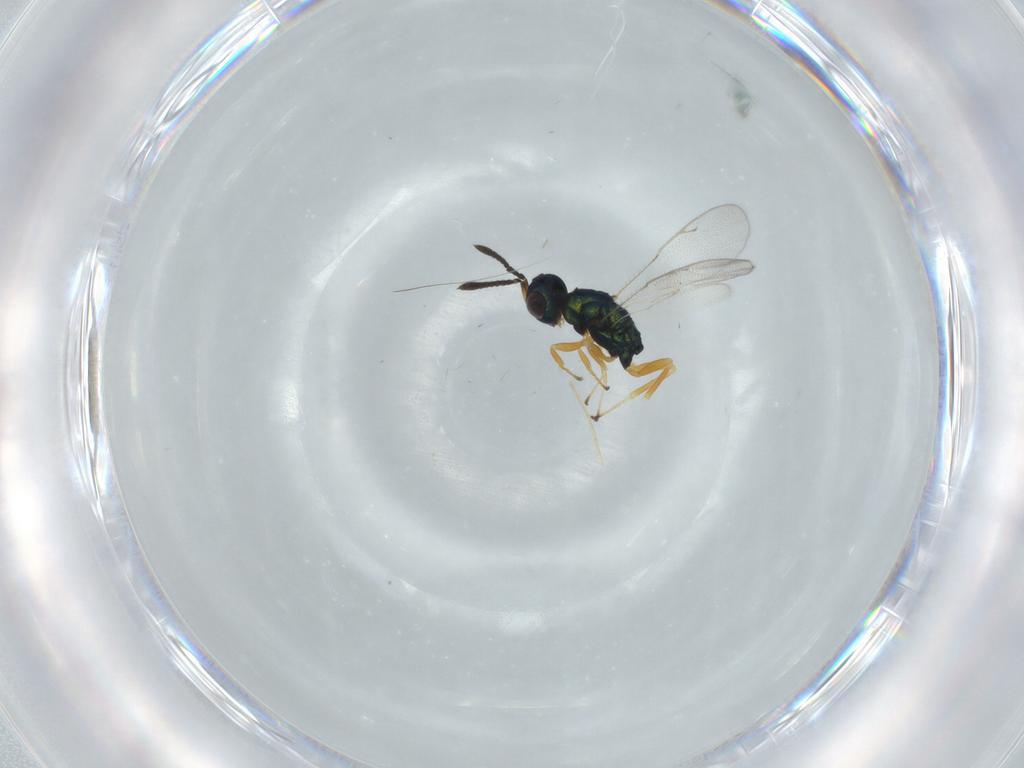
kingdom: Animalia
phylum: Arthropoda
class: Insecta
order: Hymenoptera
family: Pteromalidae
